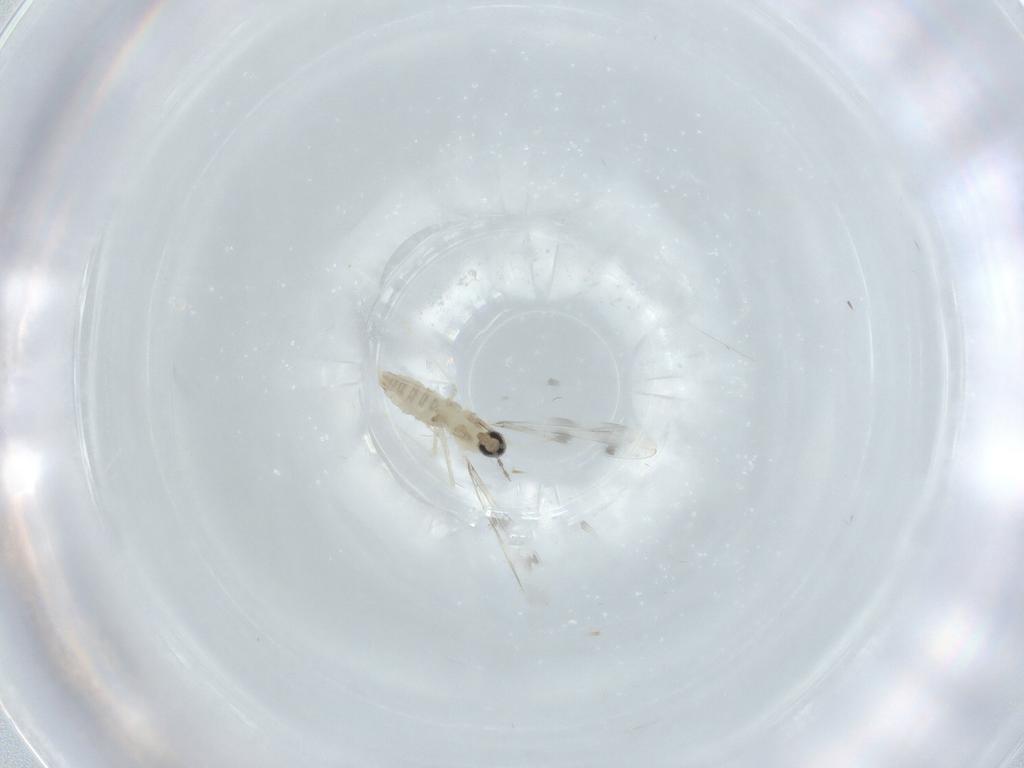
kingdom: Animalia
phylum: Arthropoda
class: Insecta
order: Diptera
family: Cecidomyiidae
